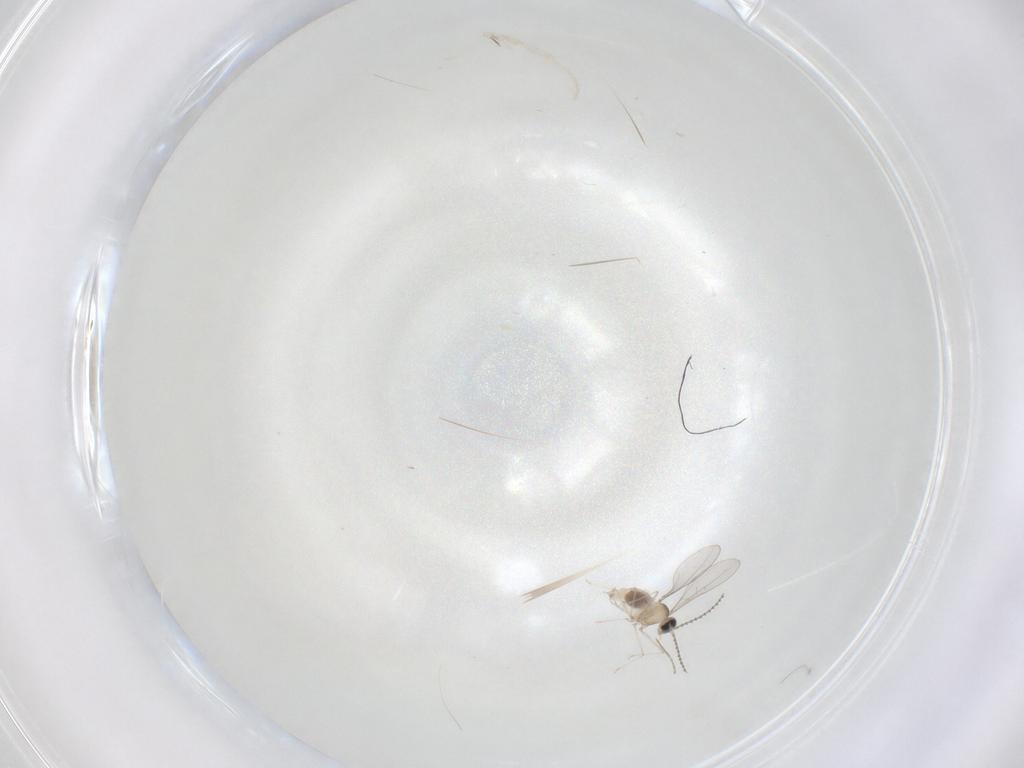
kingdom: Animalia
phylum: Arthropoda
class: Insecta
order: Diptera
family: Cecidomyiidae
